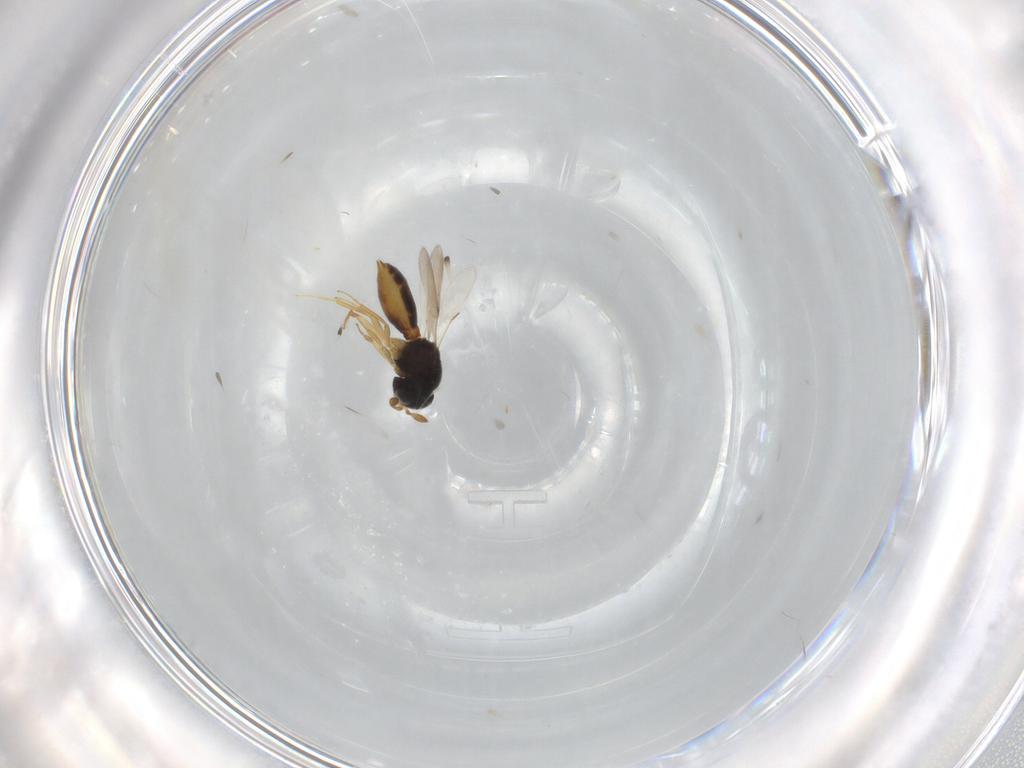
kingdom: Animalia
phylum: Arthropoda
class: Insecta
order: Hymenoptera
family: Scelionidae
